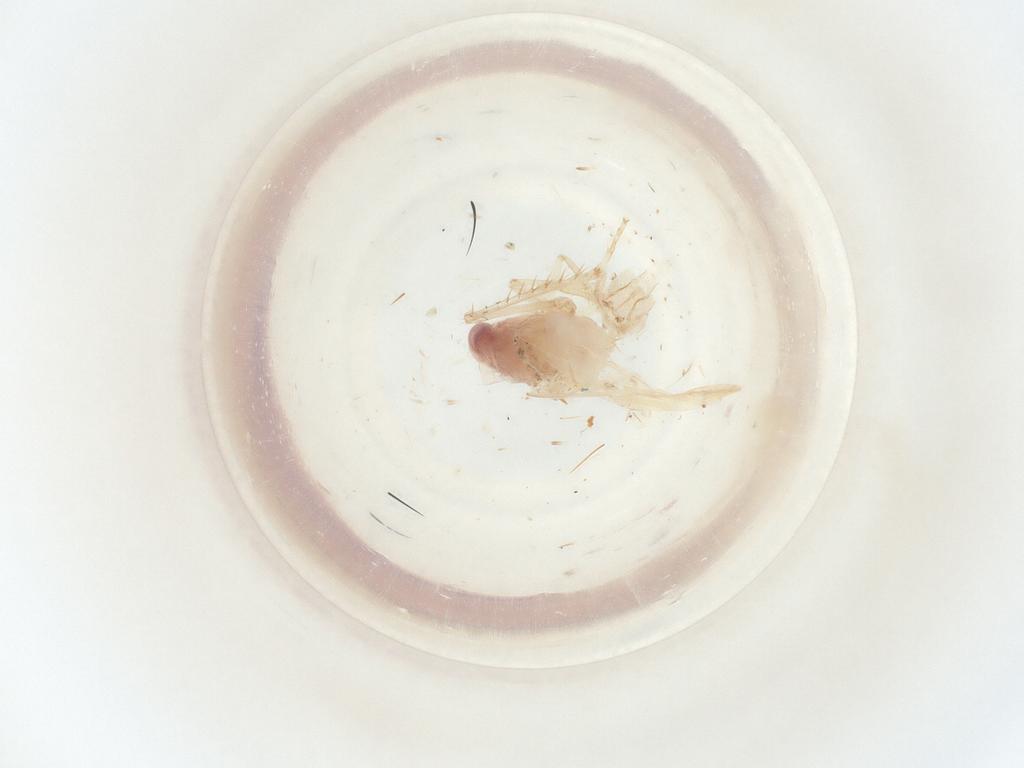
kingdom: Animalia
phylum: Arthropoda
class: Insecta
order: Hemiptera
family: Cicadellidae
